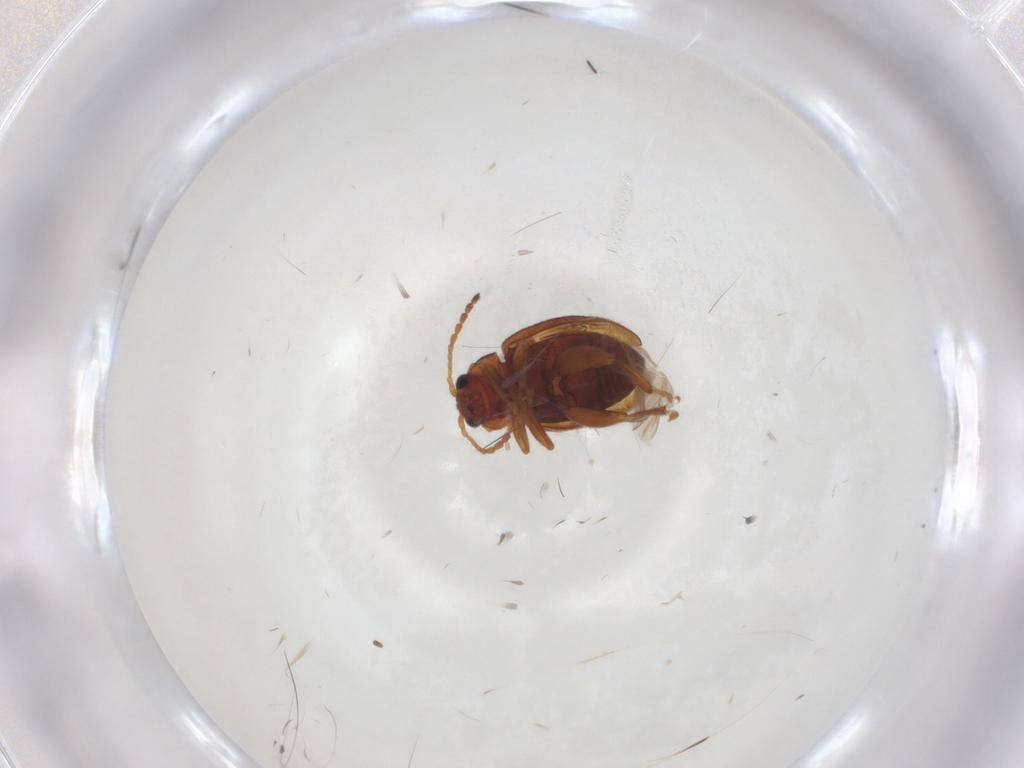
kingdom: Animalia
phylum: Arthropoda
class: Insecta
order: Coleoptera
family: Chrysomelidae
